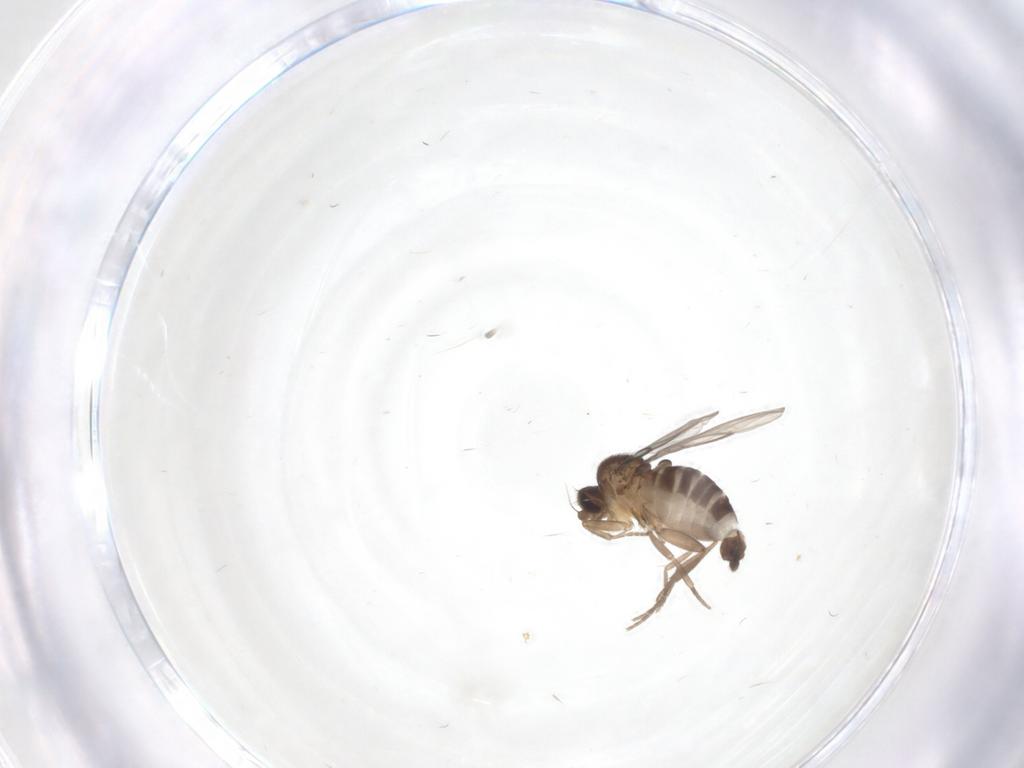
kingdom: Animalia
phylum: Arthropoda
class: Insecta
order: Diptera
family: Phoridae
